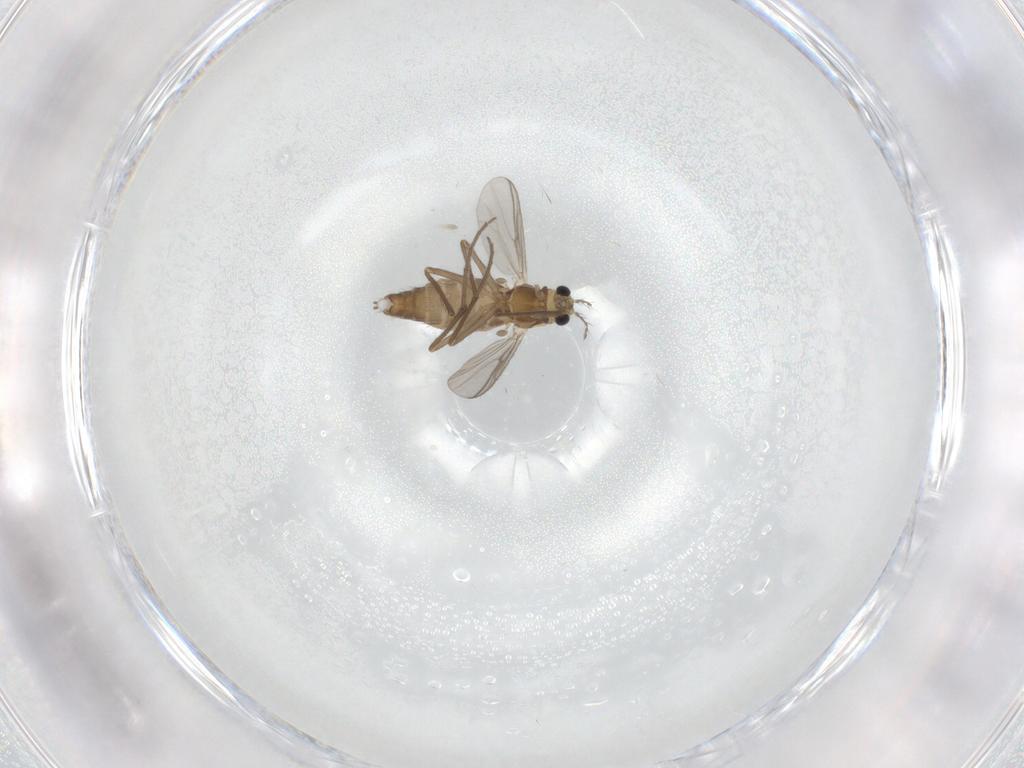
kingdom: Animalia
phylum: Arthropoda
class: Insecta
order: Diptera
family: Chironomidae
